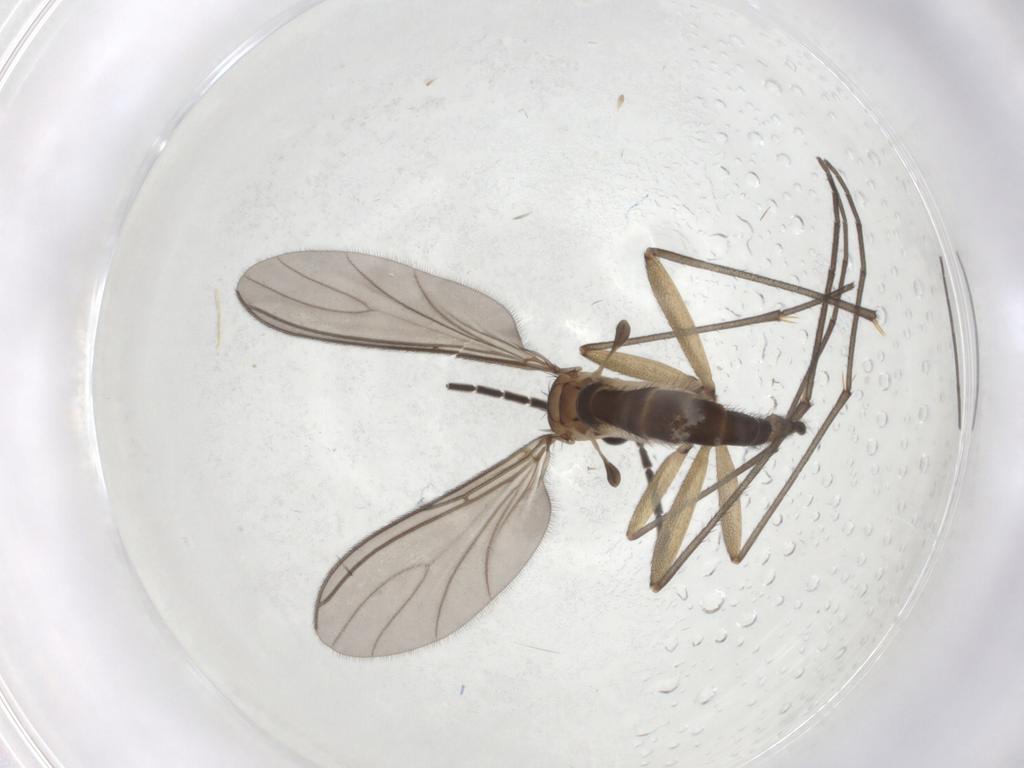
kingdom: Animalia
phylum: Arthropoda
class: Insecta
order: Diptera
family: Sciaridae
